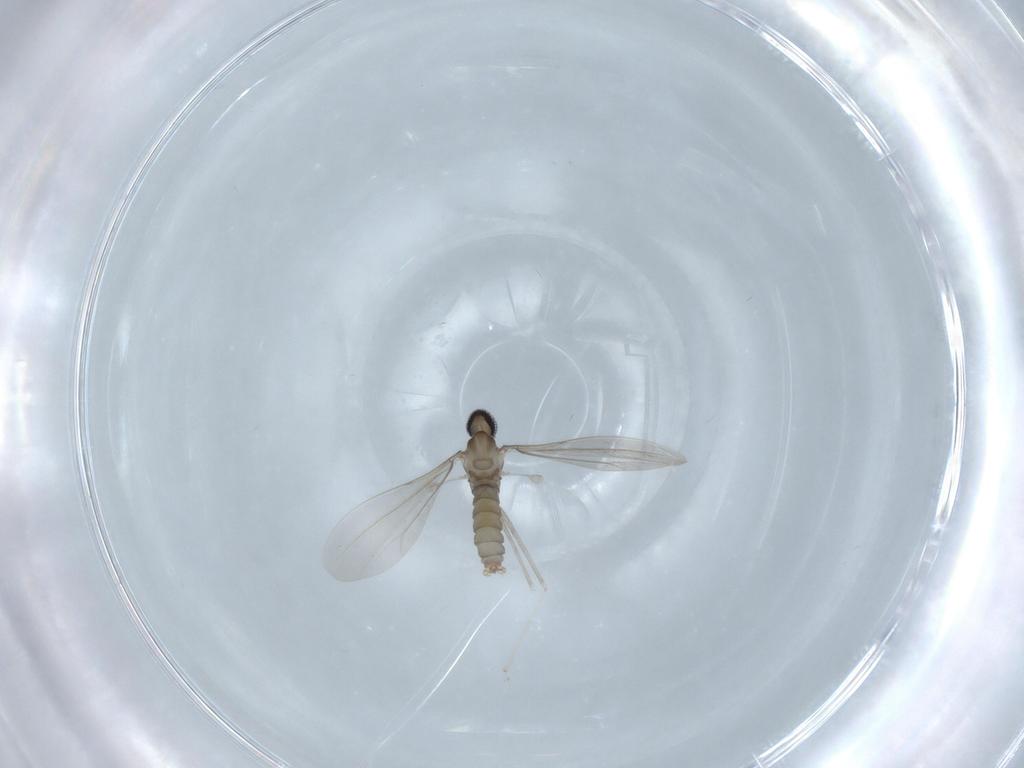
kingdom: Animalia
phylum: Arthropoda
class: Insecta
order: Diptera
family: Cecidomyiidae
